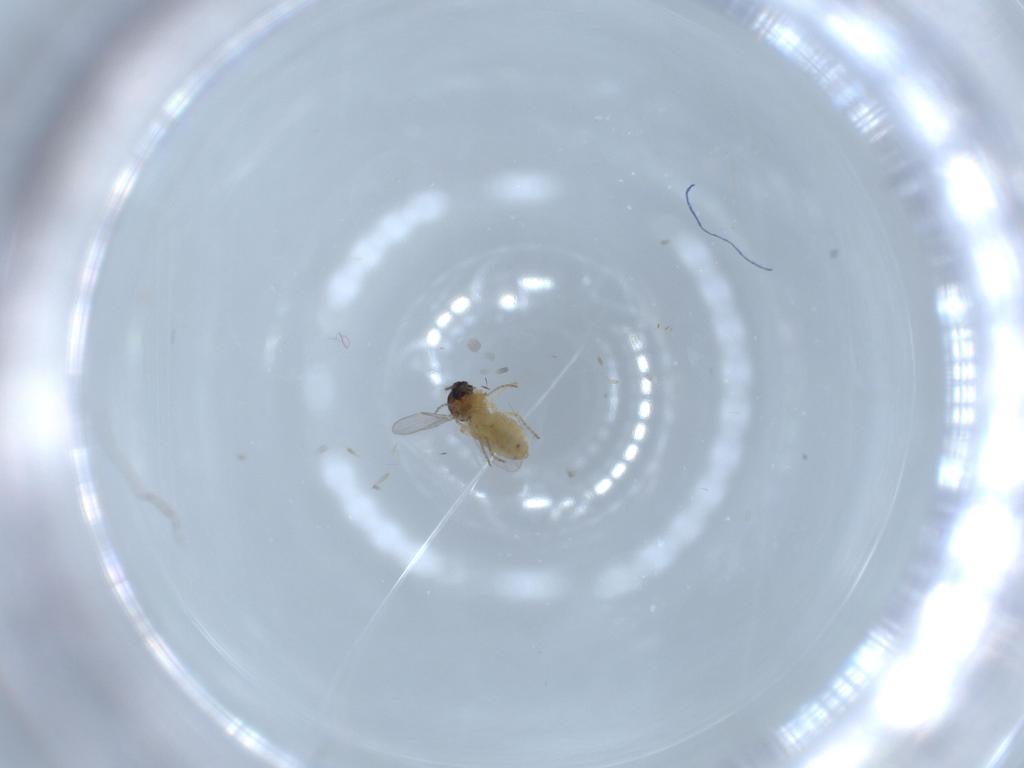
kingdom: Animalia
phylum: Arthropoda
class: Insecta
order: Diptera
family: Ceratopogonidae
